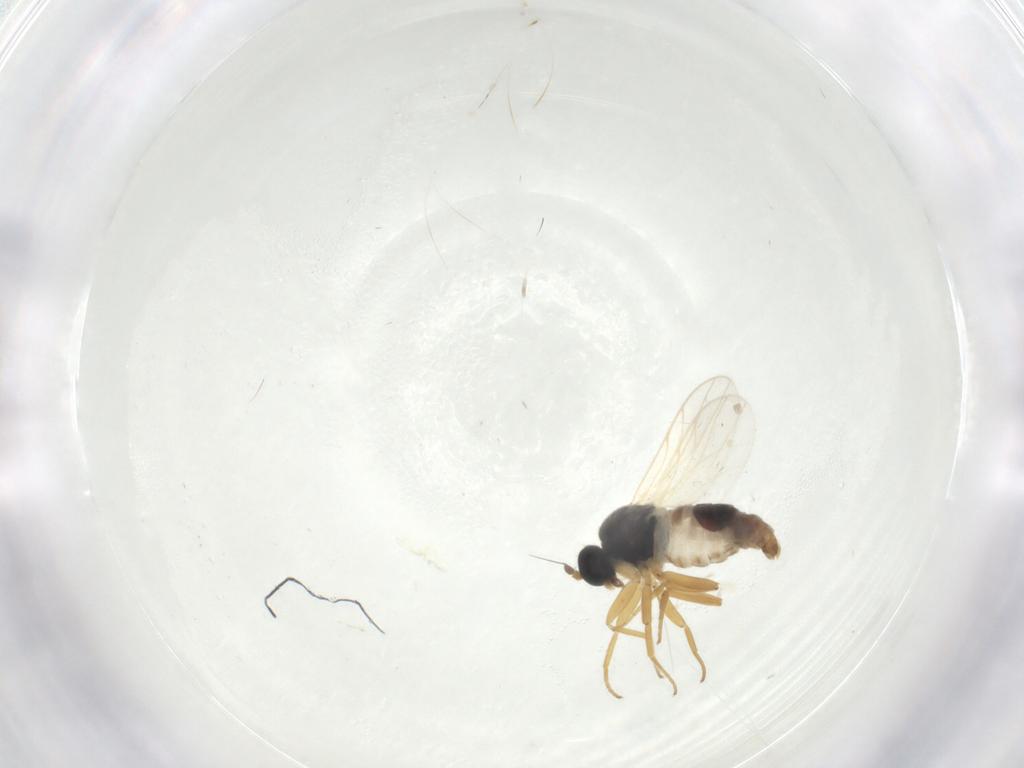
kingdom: Animalia
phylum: Arthropoda
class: Insecta
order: Diptera
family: Ceratopogonidae
